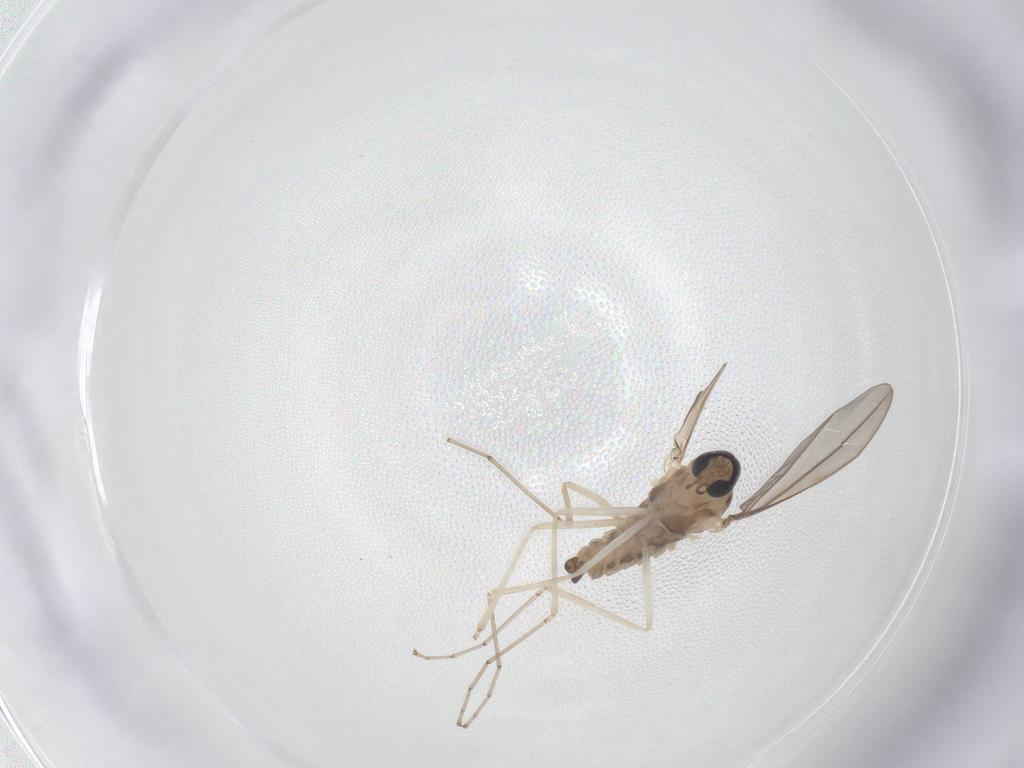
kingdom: Animalia
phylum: Arthropoda
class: Insecta
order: Diptera
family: Cecidomyiidae
